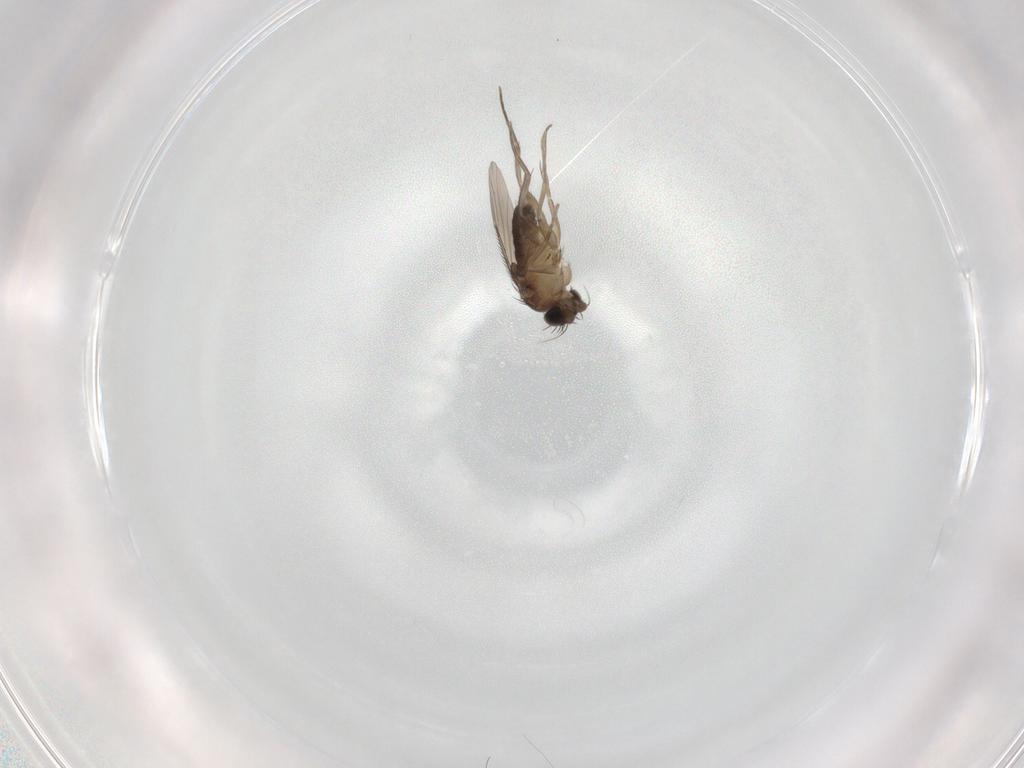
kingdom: Animalia
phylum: Arthropoda
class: Insecta
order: Diptera
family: Phoridae
